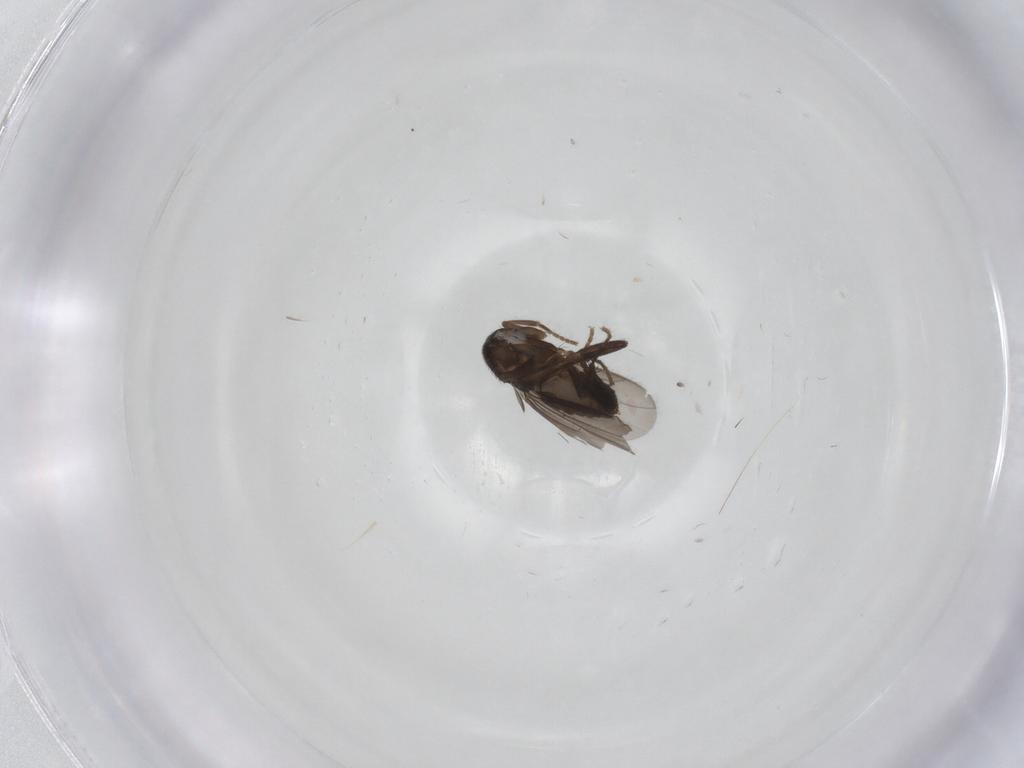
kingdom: Animalia
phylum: Arthropoda
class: Insecta
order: Diptera
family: Sphaeroceridae
